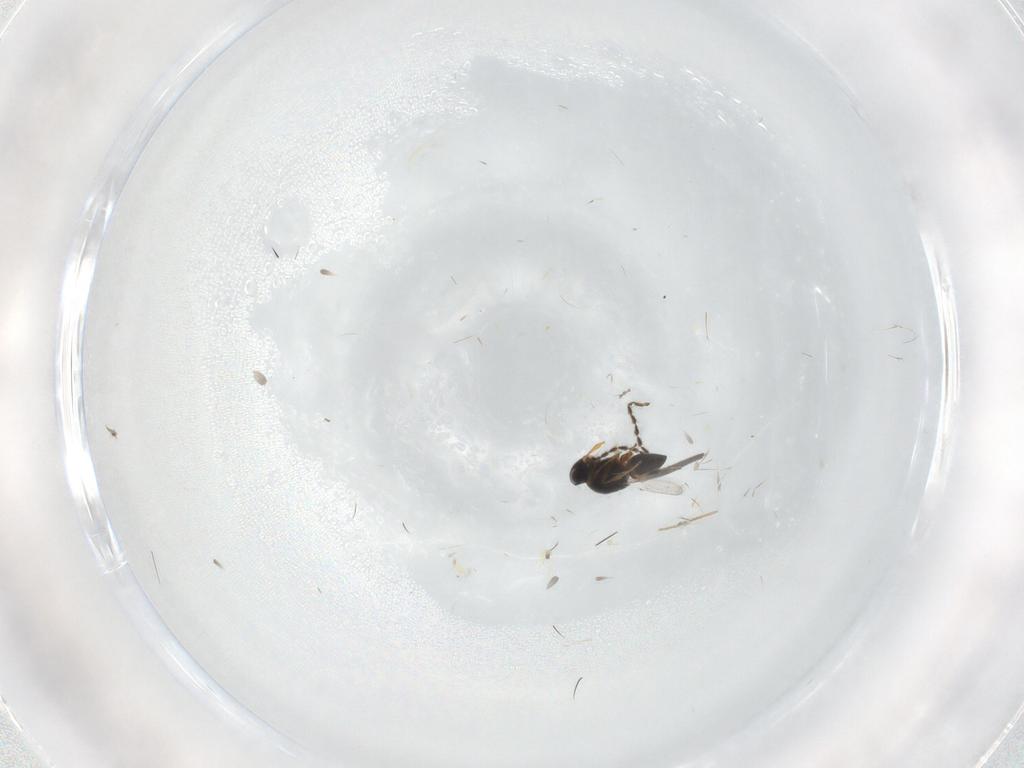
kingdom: Animalia
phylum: Arthropoda
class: Insecta
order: Hymenoptera
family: Platygastridae
